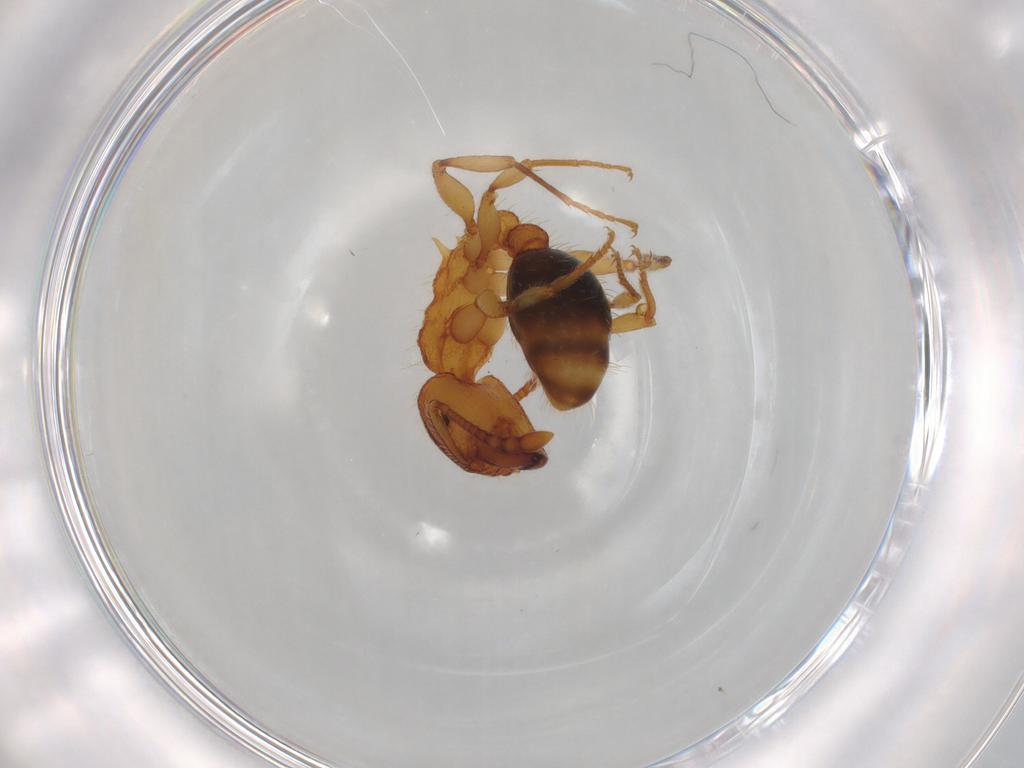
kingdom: Animalia
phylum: Arthropoda
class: Insecta
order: Hymenoptera
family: Formicidae
